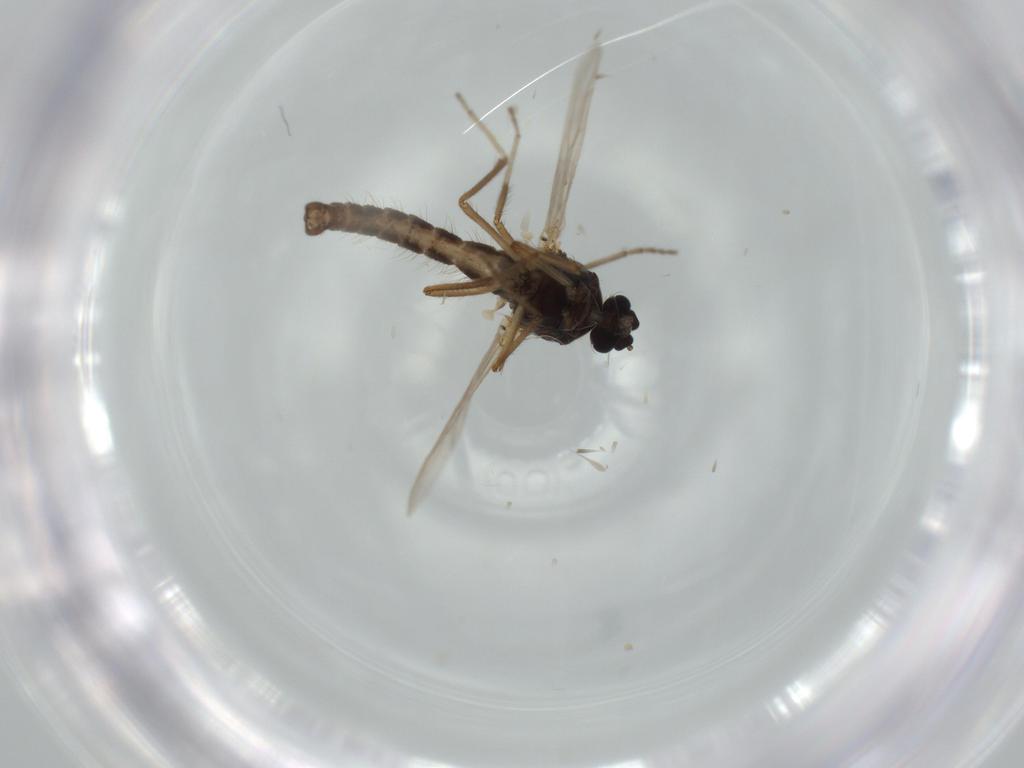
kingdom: Animalia
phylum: Arthropoda
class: Insecta
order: Diptera
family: Ceratopogonidae
